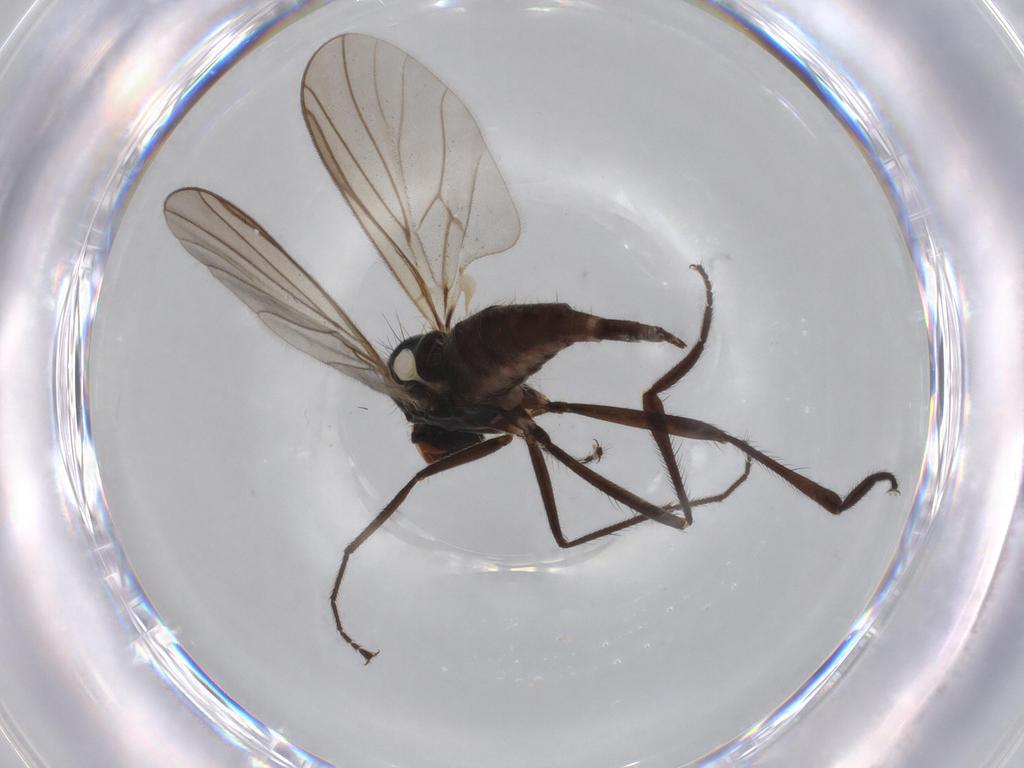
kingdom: Animalia
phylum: Arthropoda
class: Insecta
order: Diptera
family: Hybotidae
